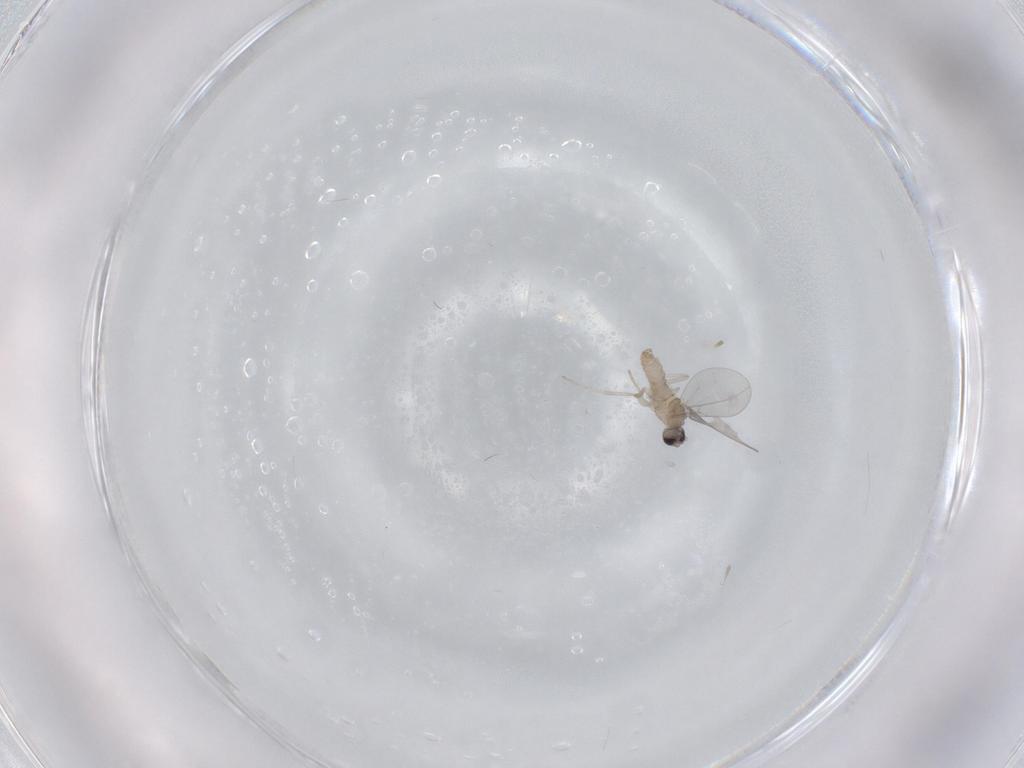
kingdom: Animalia
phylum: Arthropoda
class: Insecta
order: Diptera
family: Cecidomyiidae
